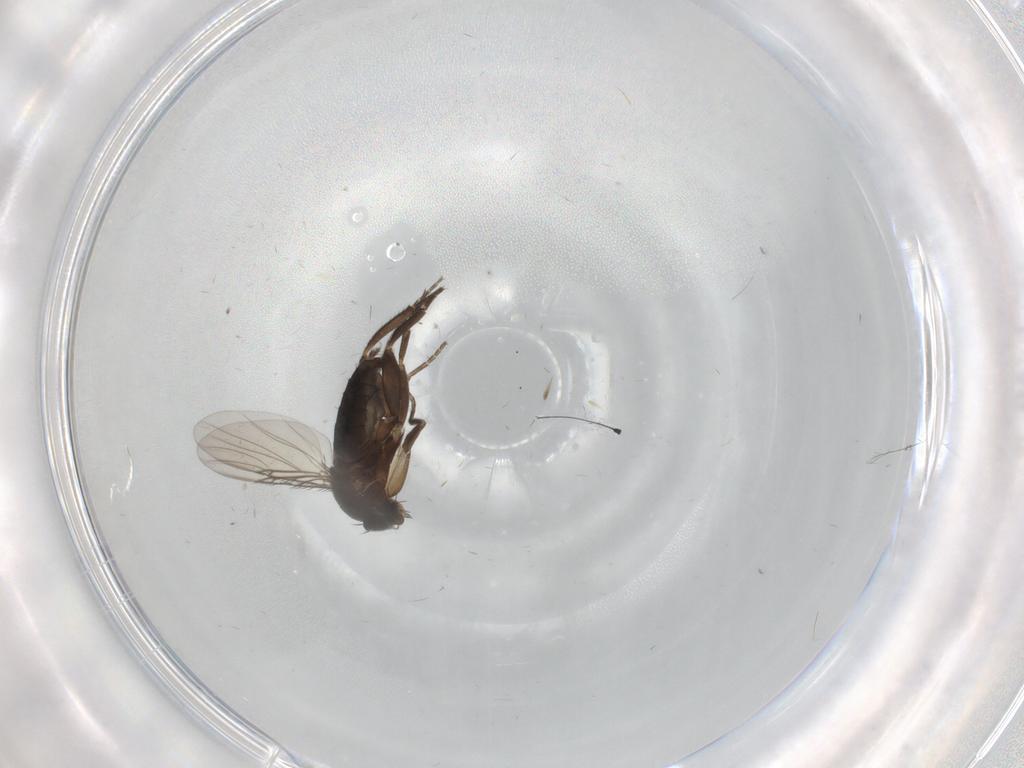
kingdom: Animalia
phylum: Arthropoda
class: Insecta
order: Diptera
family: Phoridae
